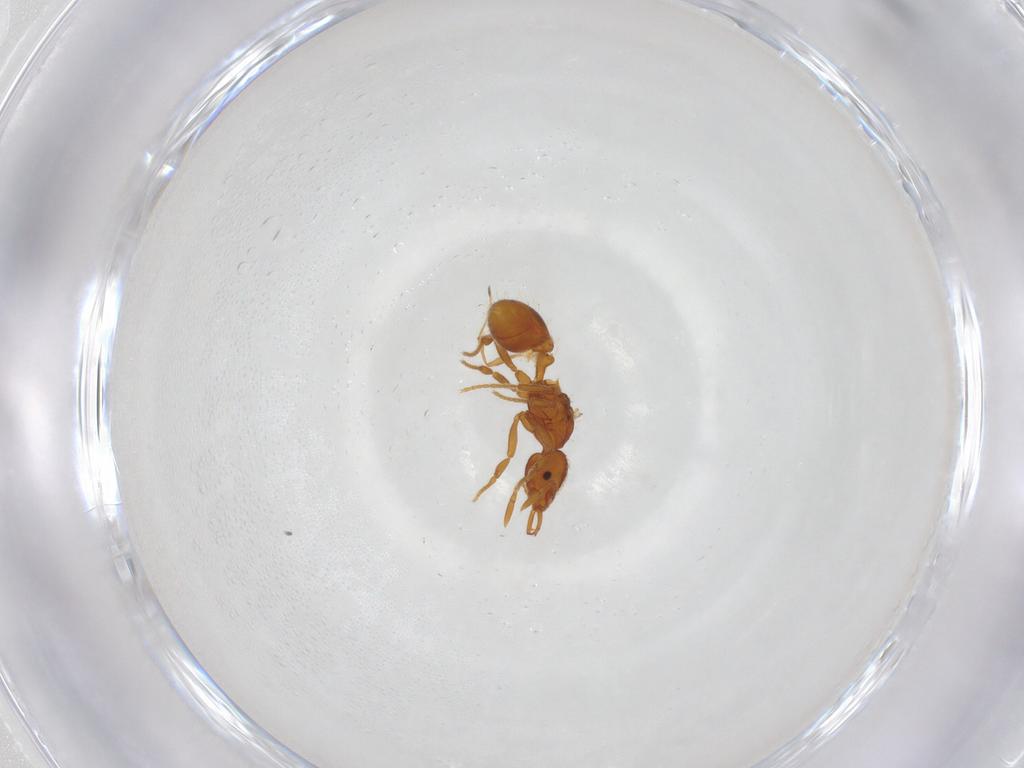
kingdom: Animalia
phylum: Arthropoda
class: Insecta
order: Hymenoptera
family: Formicidae
